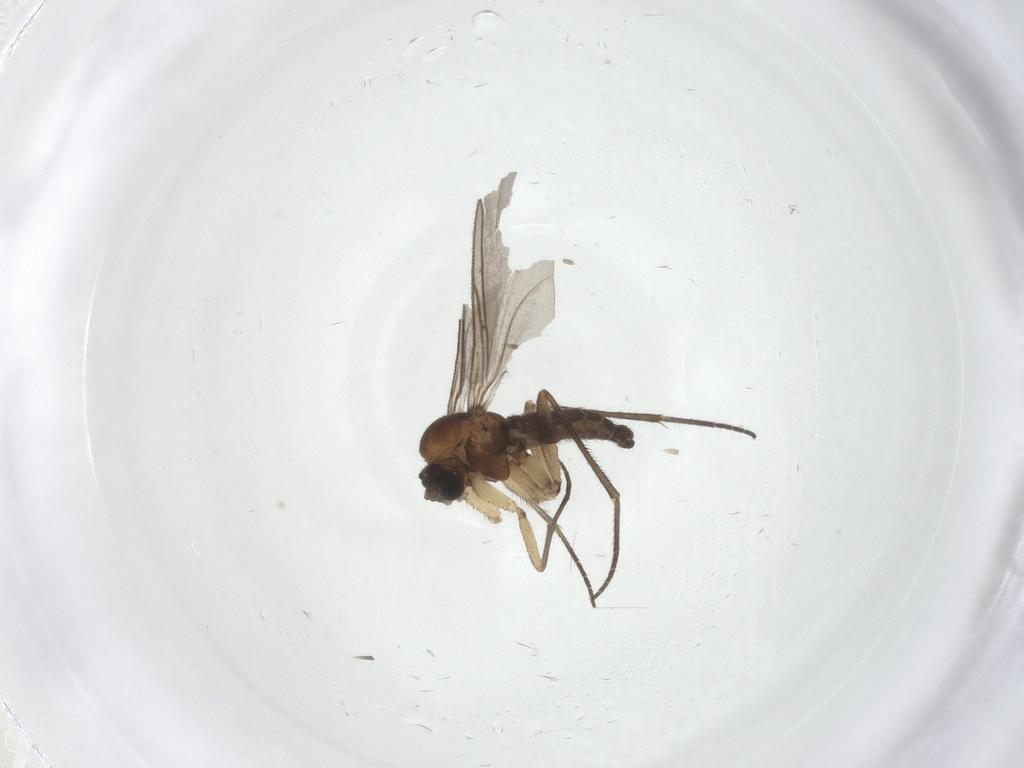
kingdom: Animalia
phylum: Arthropoda
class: Insecta
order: Diptera
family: Sciaridae
